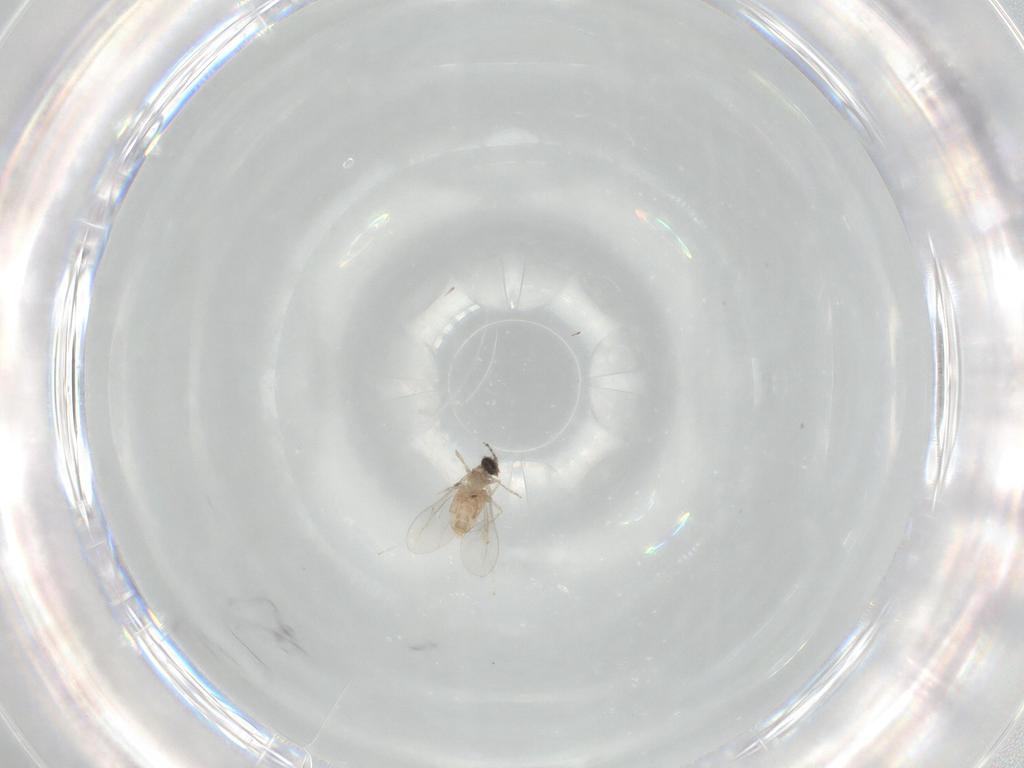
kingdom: Animalia
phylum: Arthropoda
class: Insecta
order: Diptera
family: Cecidomyiidae
